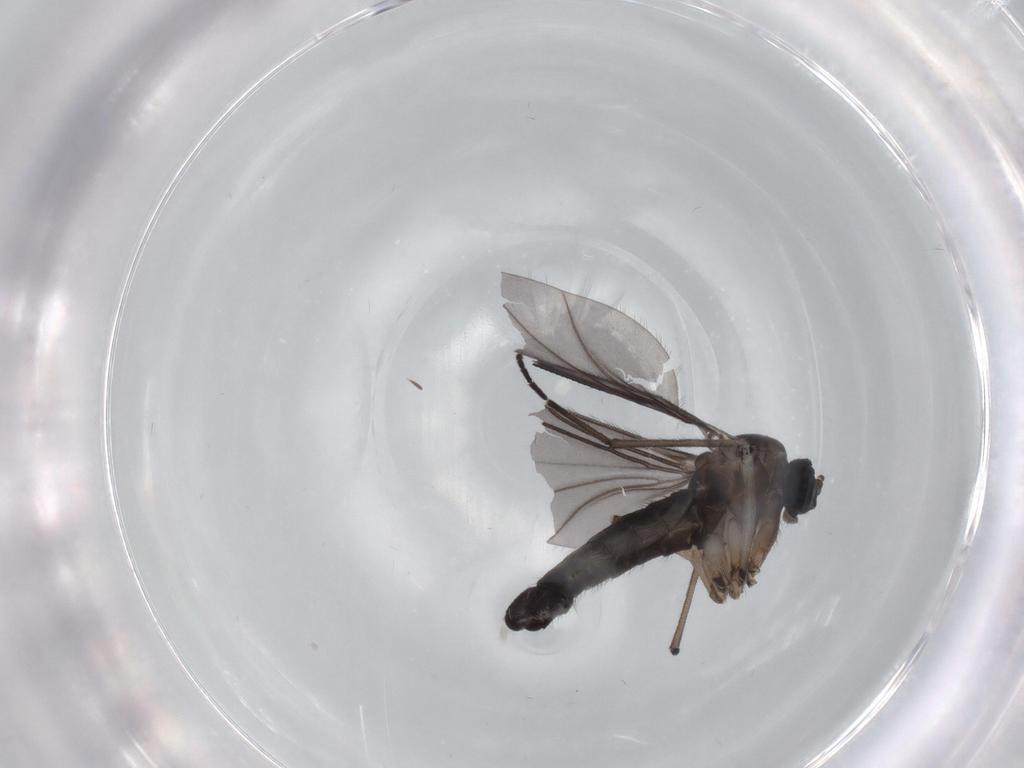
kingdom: Animalia
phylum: Arthropoda
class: Insecta
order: Diptera
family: Sciaridae
